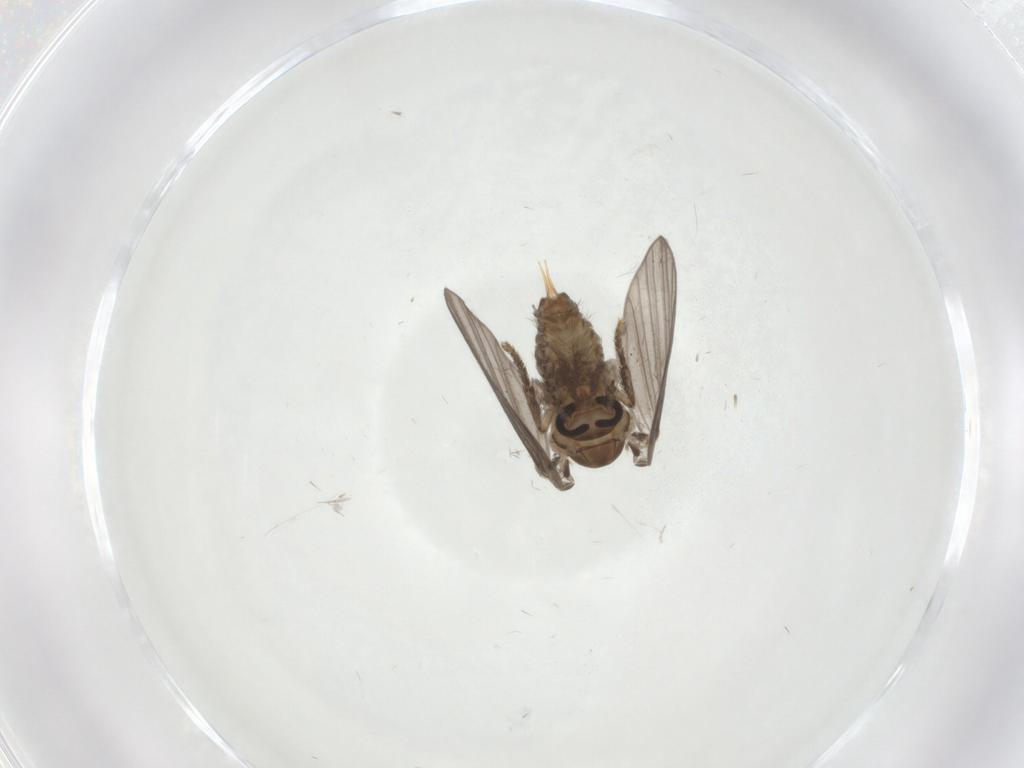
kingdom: Animalia
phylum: Arthropoda
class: Insecta
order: Diptera
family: Psychodidae
